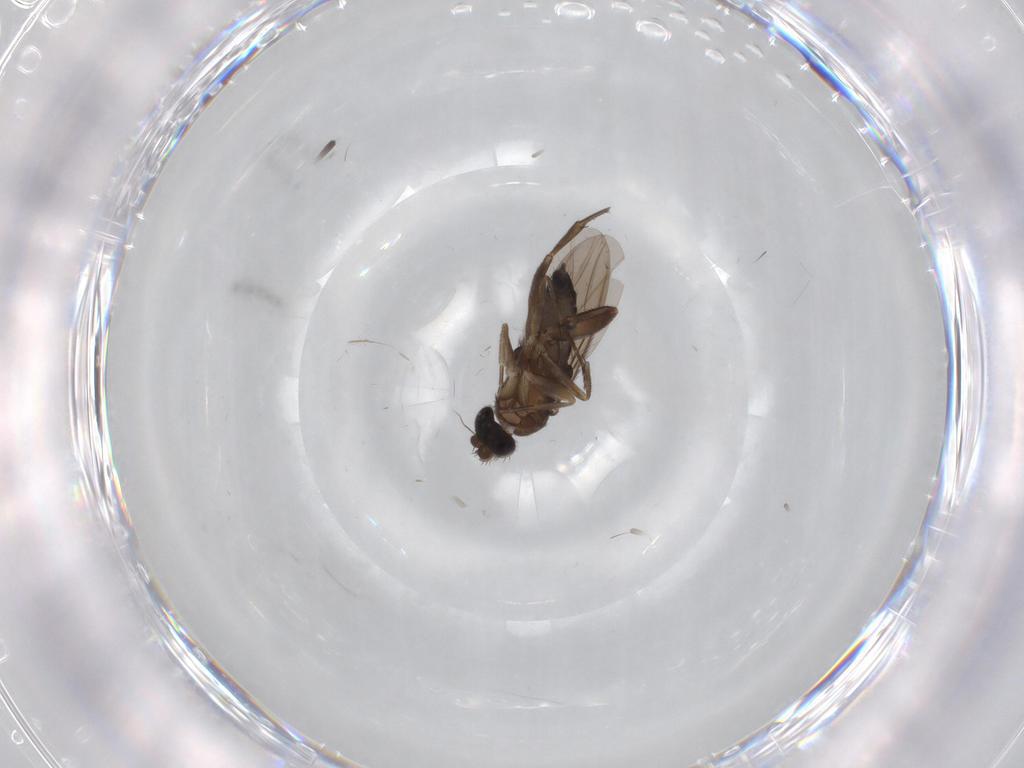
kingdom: Animalia
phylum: Arthropoda
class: Insecta
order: Diptera
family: Phoridae
